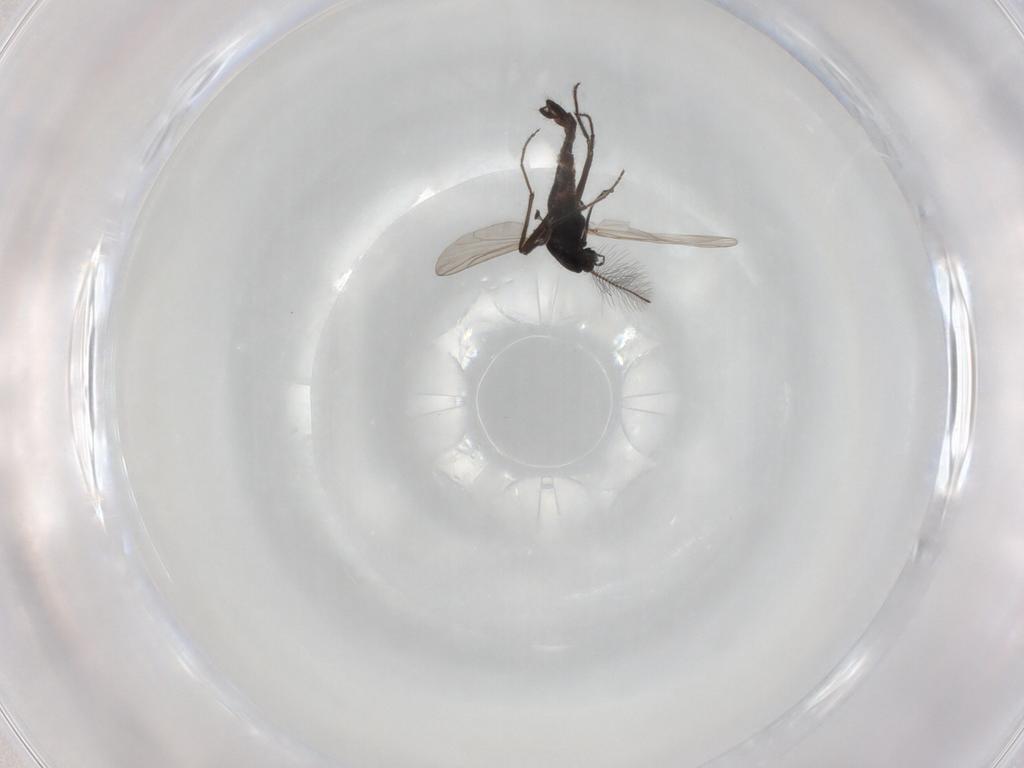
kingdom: Animalia
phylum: Arthropoda
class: Insecta
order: Diptera
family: Chironomidae
